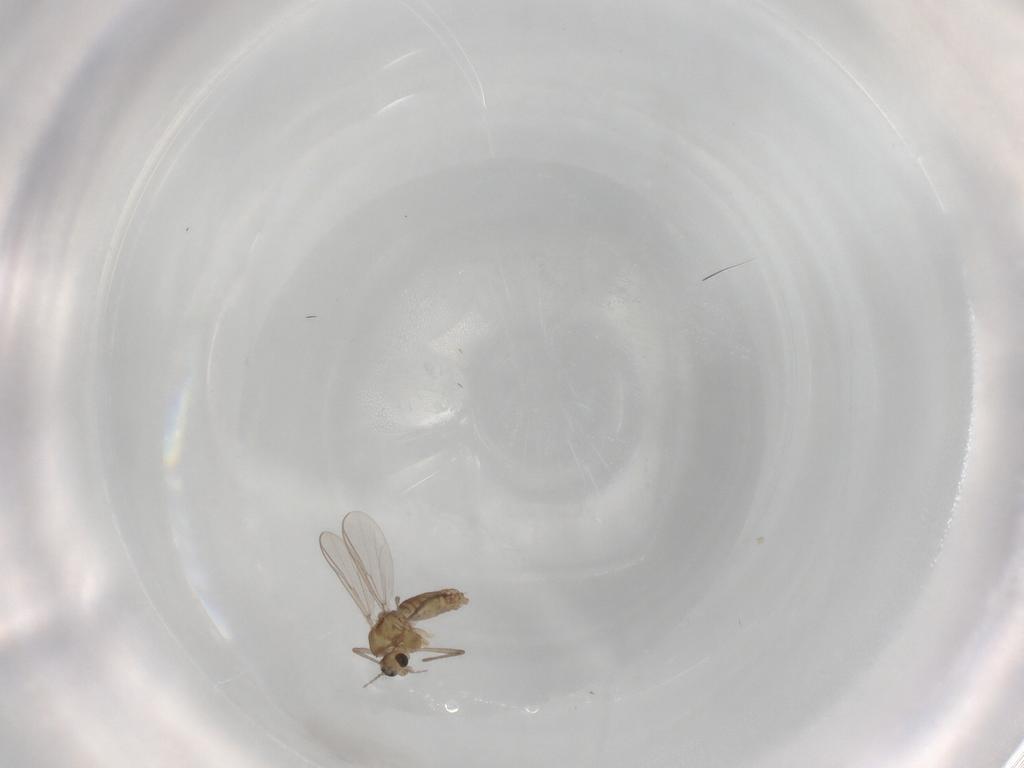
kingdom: Animalia
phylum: Arthropoda
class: Insecta
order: Diptera
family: Chironomidae
